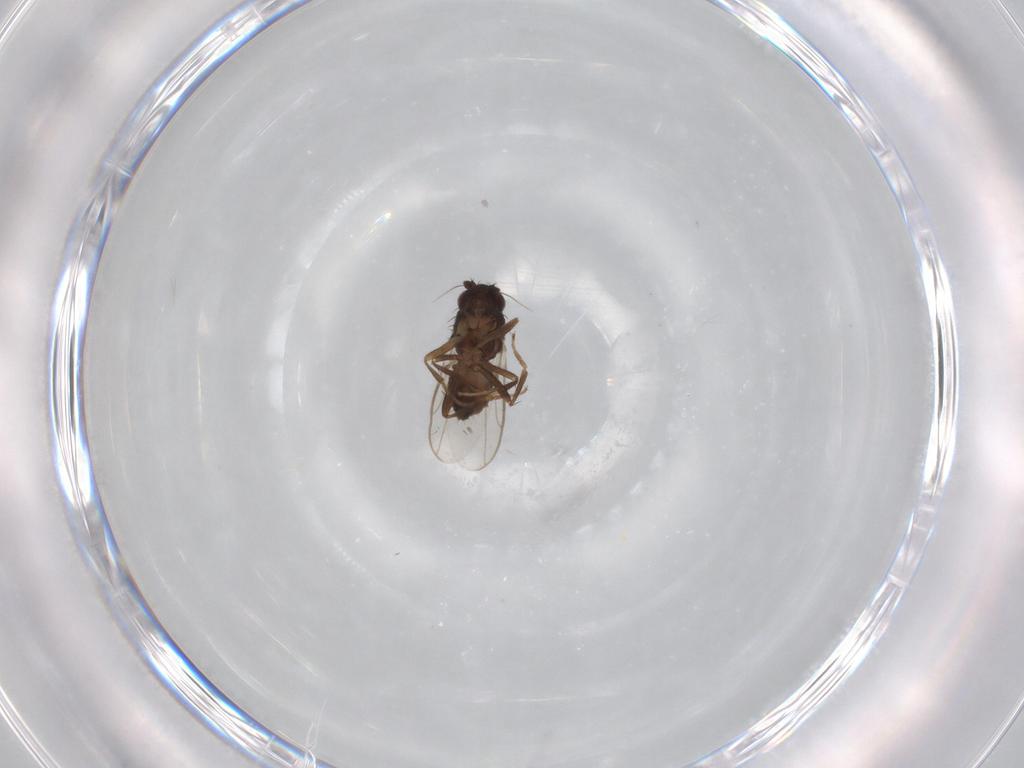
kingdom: Animalia
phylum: Arthropoda
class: Insecta
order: Diptera
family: Sphaeroceridae
